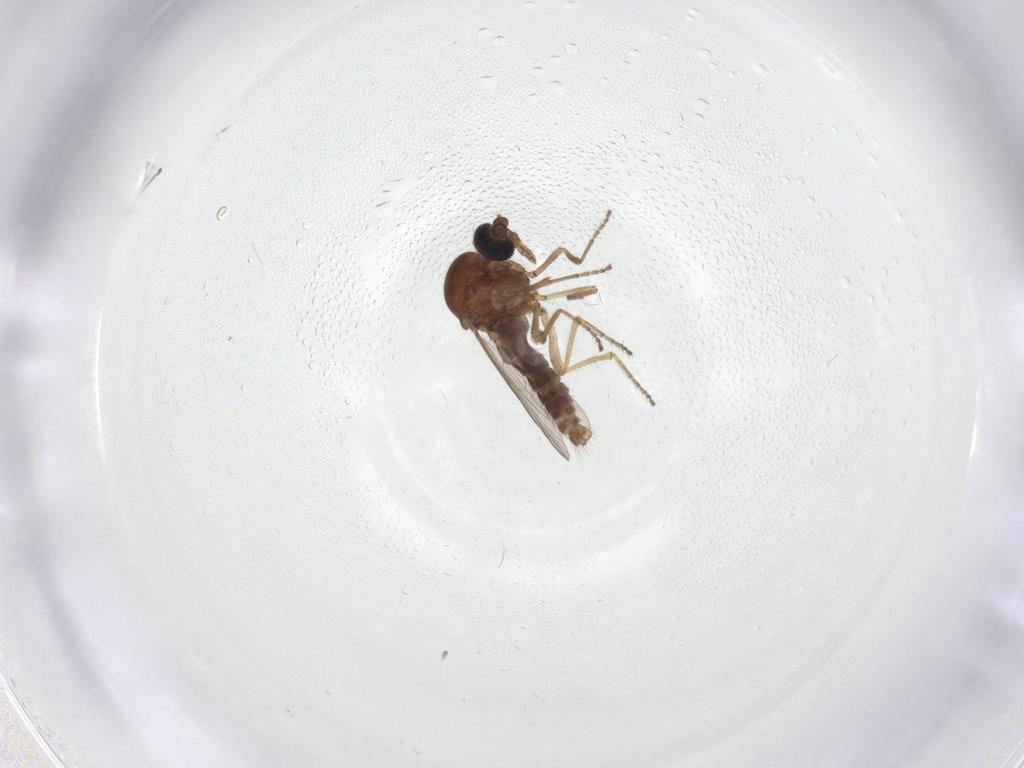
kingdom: Animalia
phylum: Arthropoda
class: Insecta
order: Diptera
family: Ceratopogonidae
